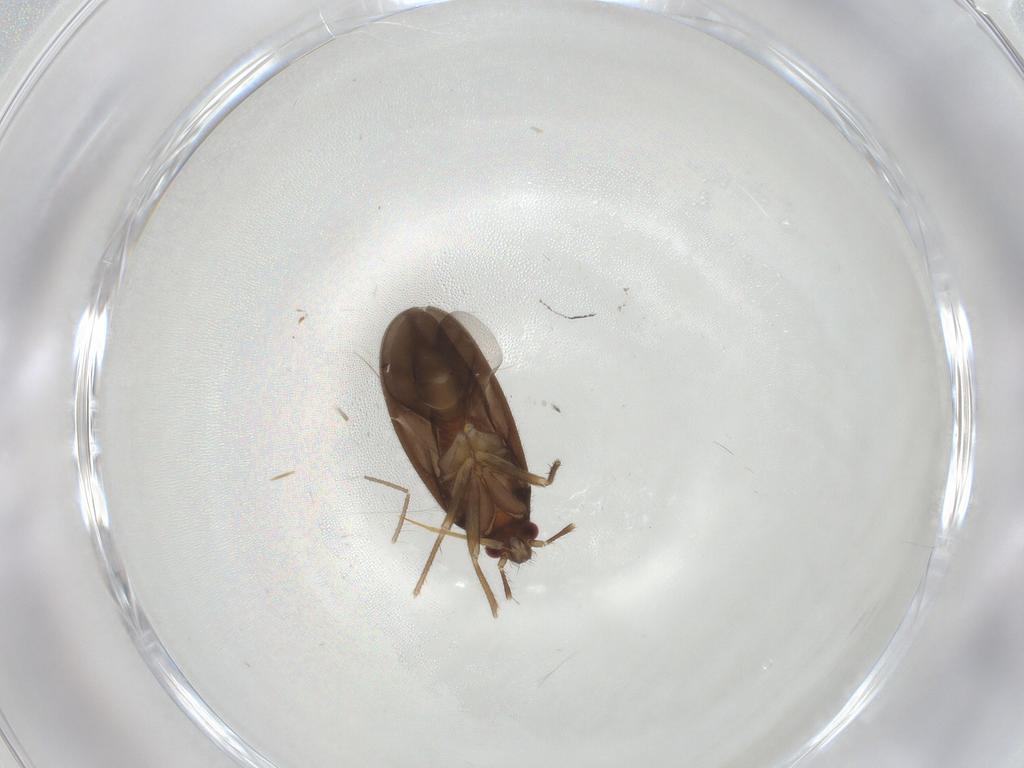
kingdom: Animalia
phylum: Arthropoda
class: Insecta
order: Hemiptera
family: Ceratocombidae
